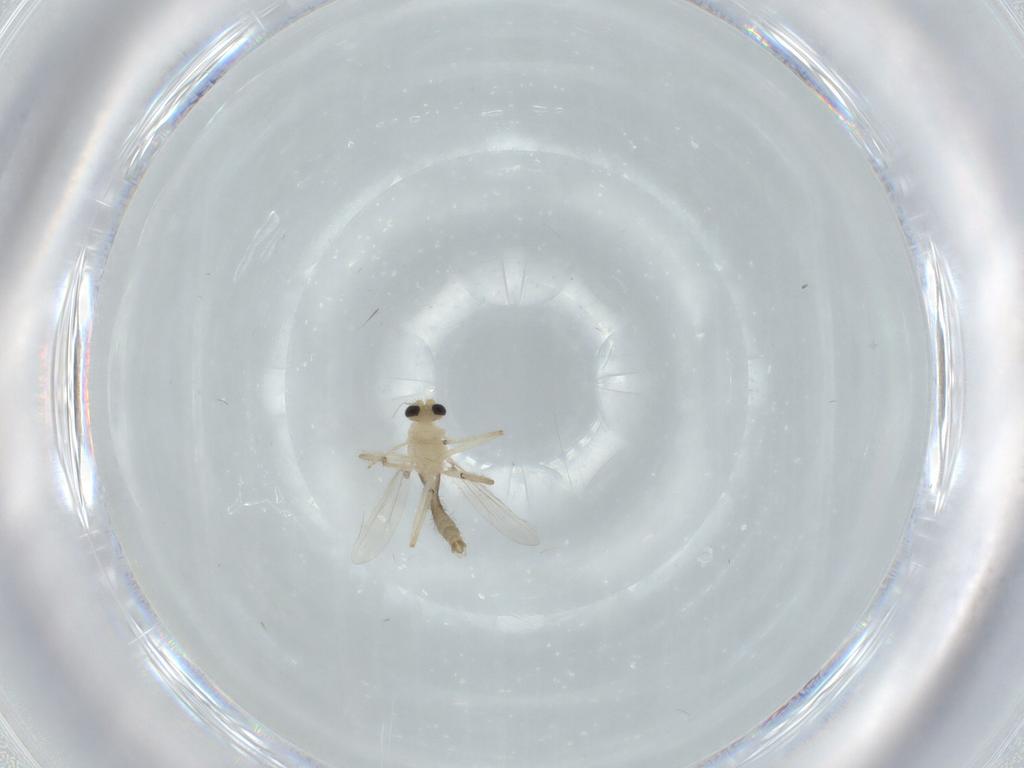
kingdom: Animalia
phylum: Arthropoda
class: Insecta
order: Diptera
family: Chironomidae
